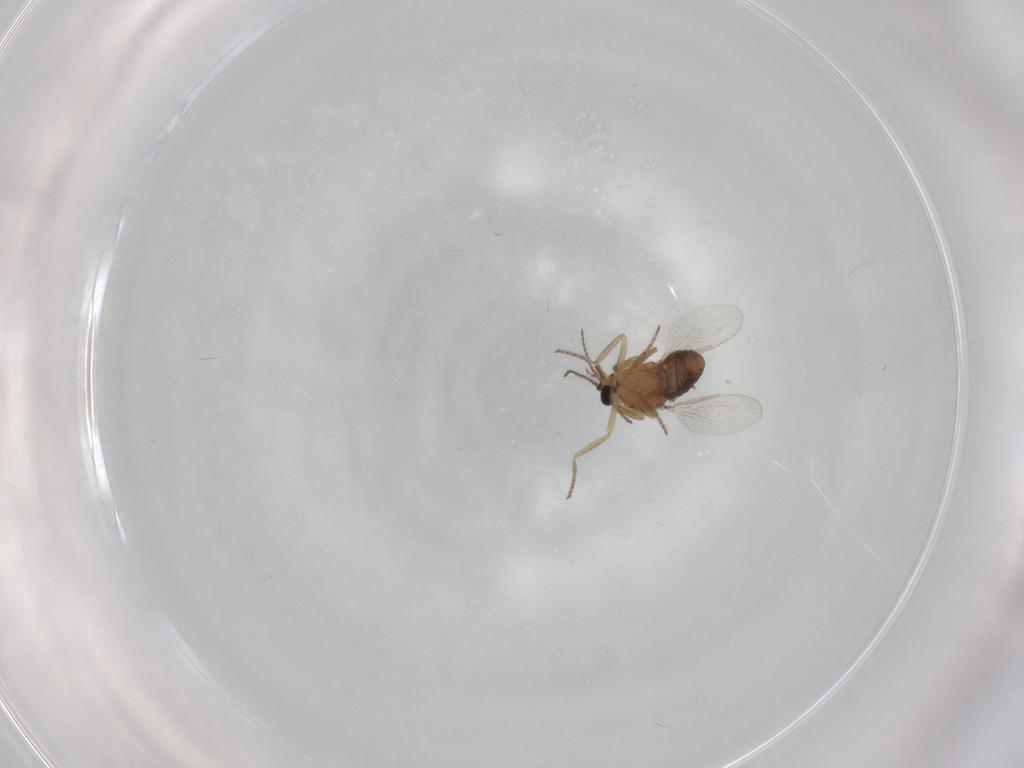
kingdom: Animalia
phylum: Arthropoda
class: Insecta
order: Diptera
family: Ceratopogonidae
